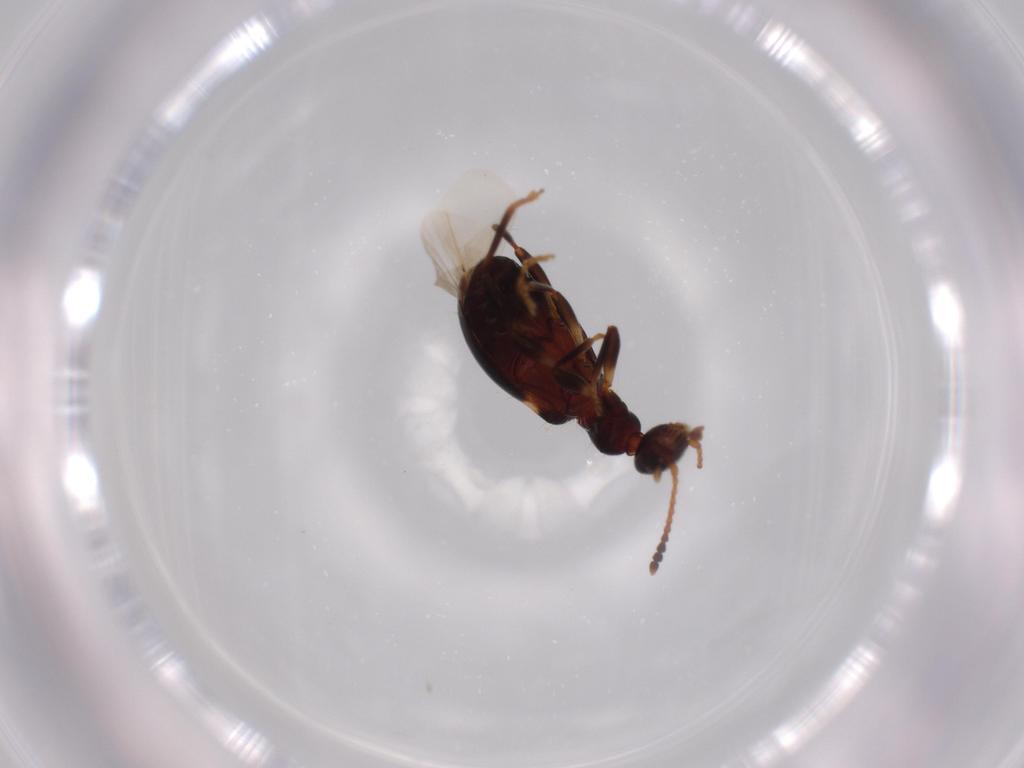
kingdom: Animalia
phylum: Arthropoda
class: Insecta
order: Coleoptera
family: Anthicidae
